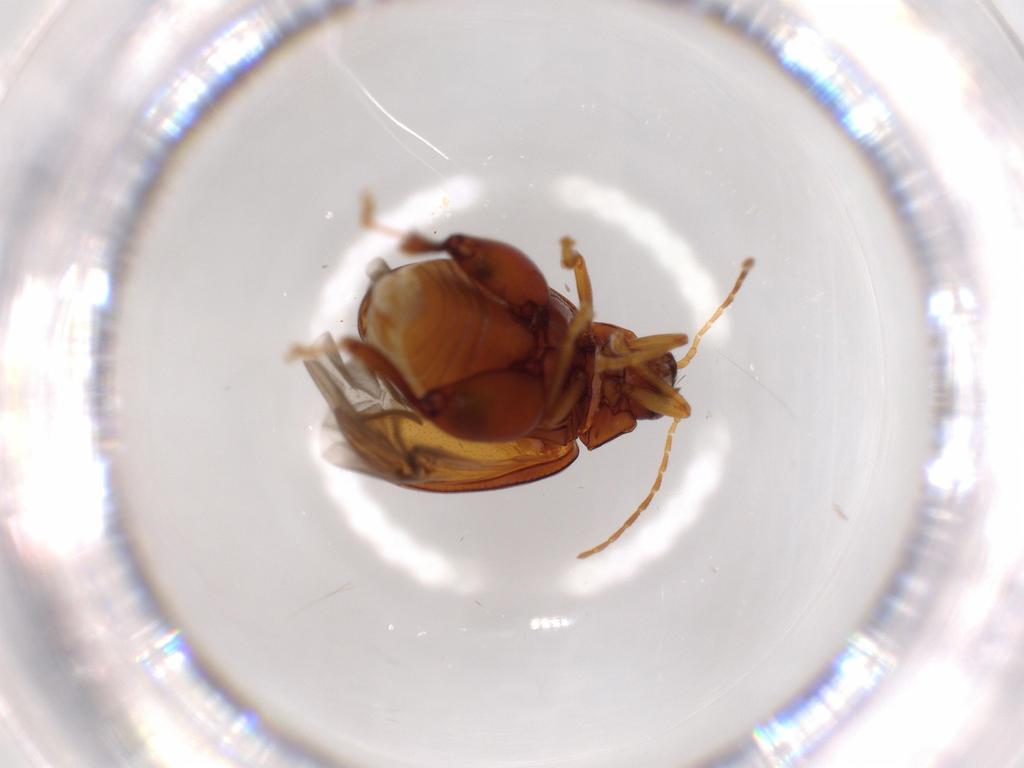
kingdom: Animalia
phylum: Arthropoda
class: Insecta
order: Coleoptera
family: Chrysomelidae
